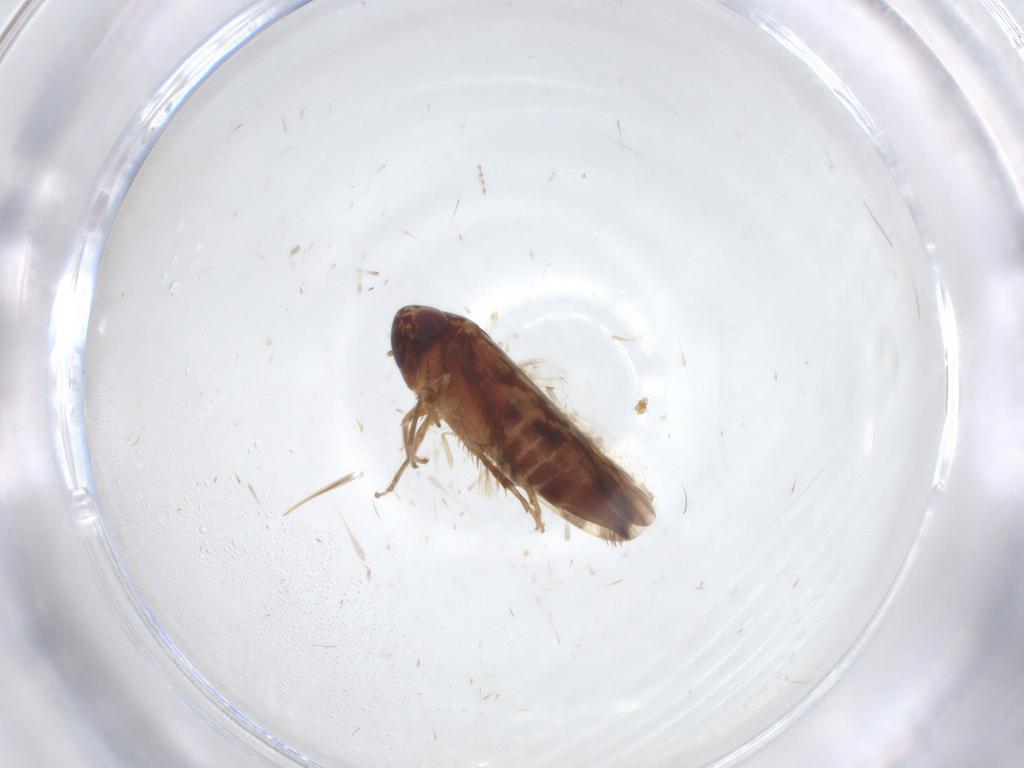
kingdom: Animalia
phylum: Arthropoda
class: Insecta
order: Hemiptera
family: Cicadellidae
